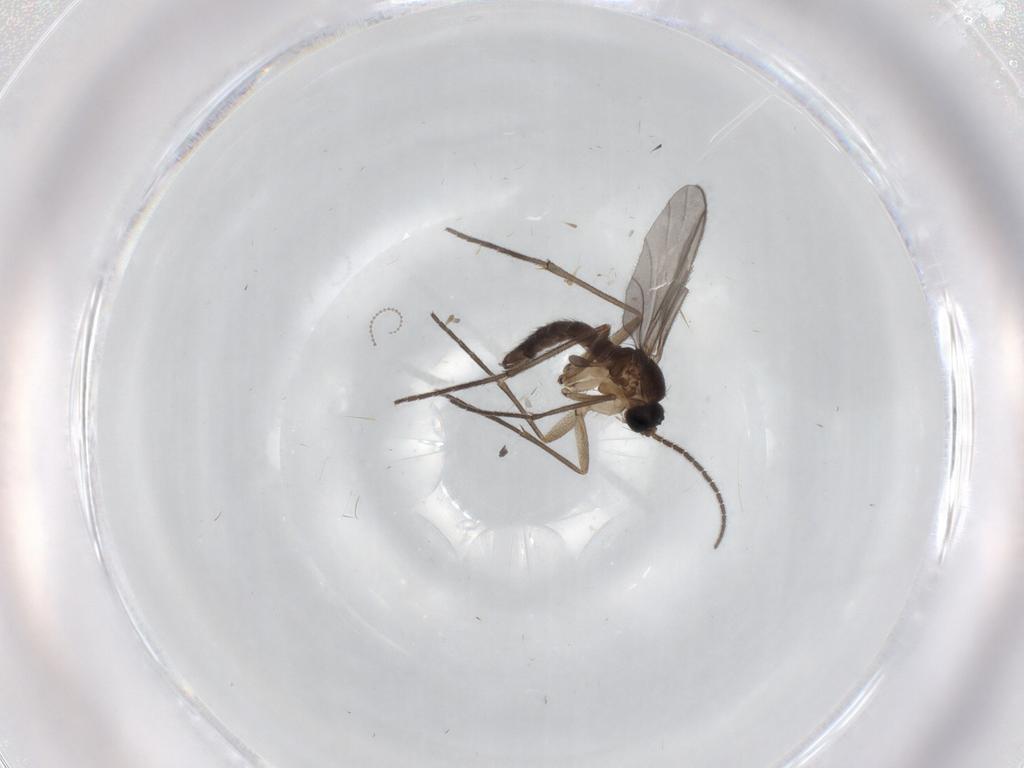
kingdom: Animalia
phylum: Arthropoda
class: Insecta
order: Diptera
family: Sciaridae
